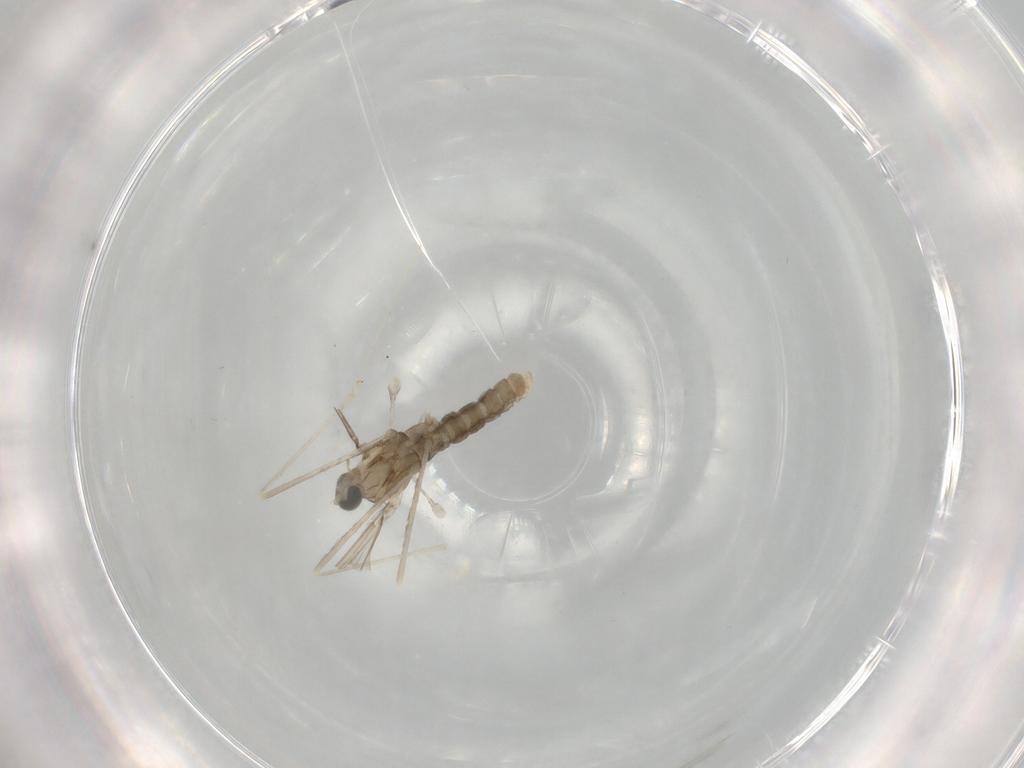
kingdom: Animalia
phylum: Arthropoda
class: Insecta
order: Diptera
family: Cecidomyiidae
